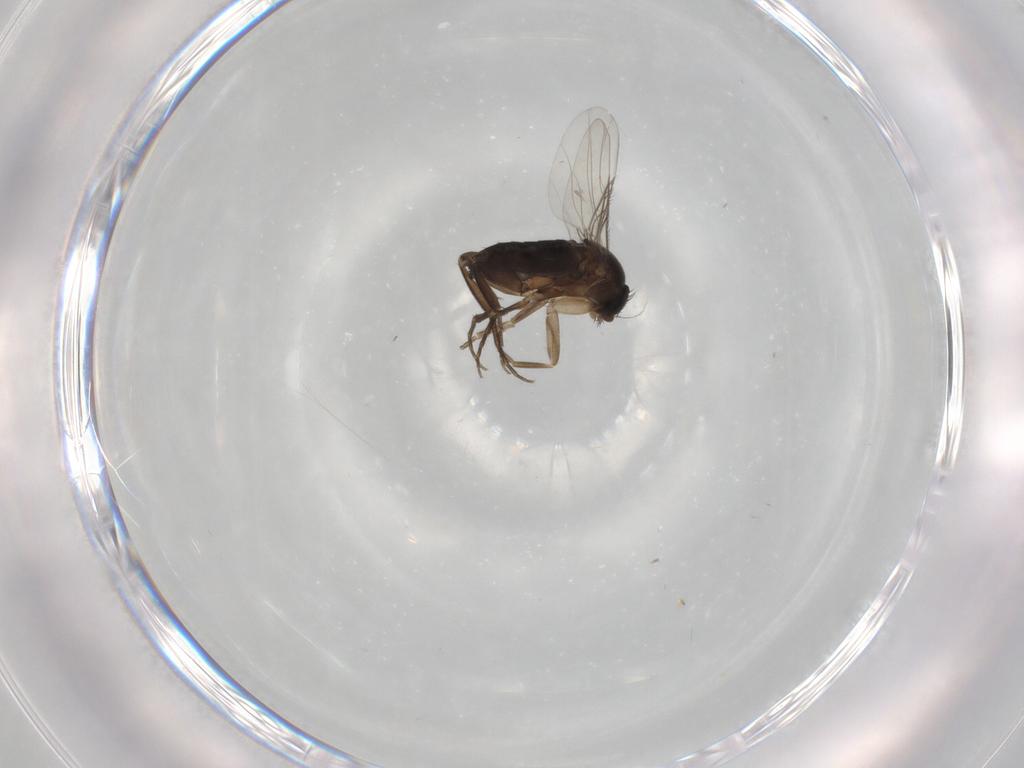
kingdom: Animalia
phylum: Arthropoda
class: Insecta
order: Diptera
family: Phoridae
